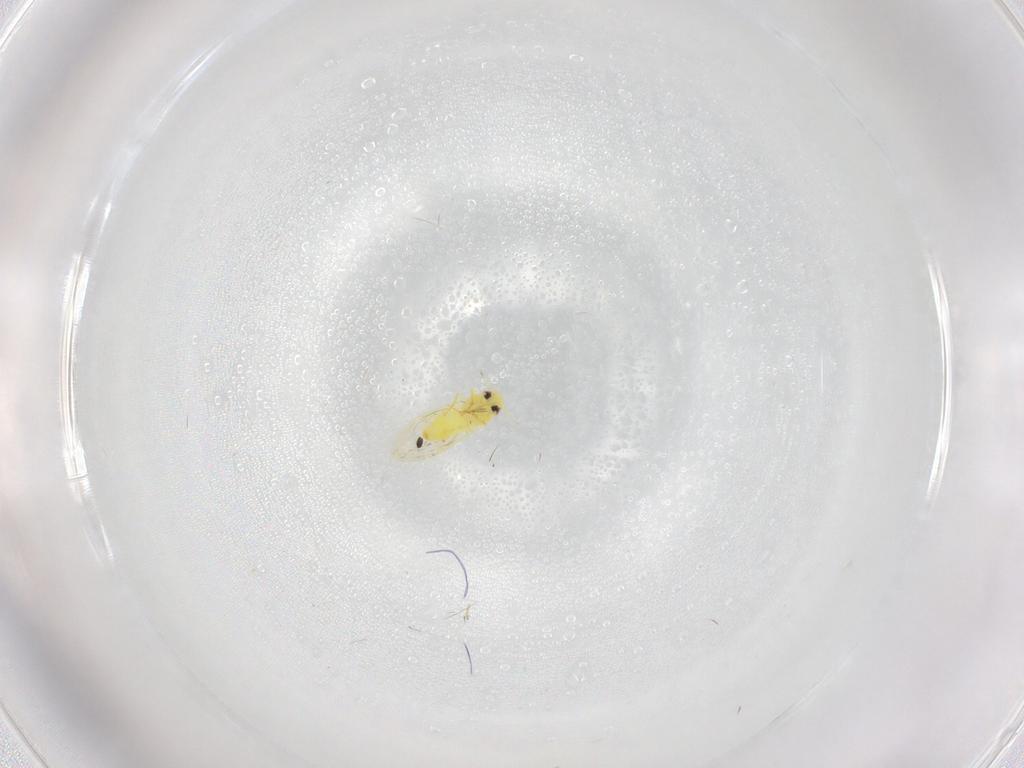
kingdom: Animalia
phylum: Arthropoda
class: Insecta
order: Hemiptera
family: Aleyrodidae
